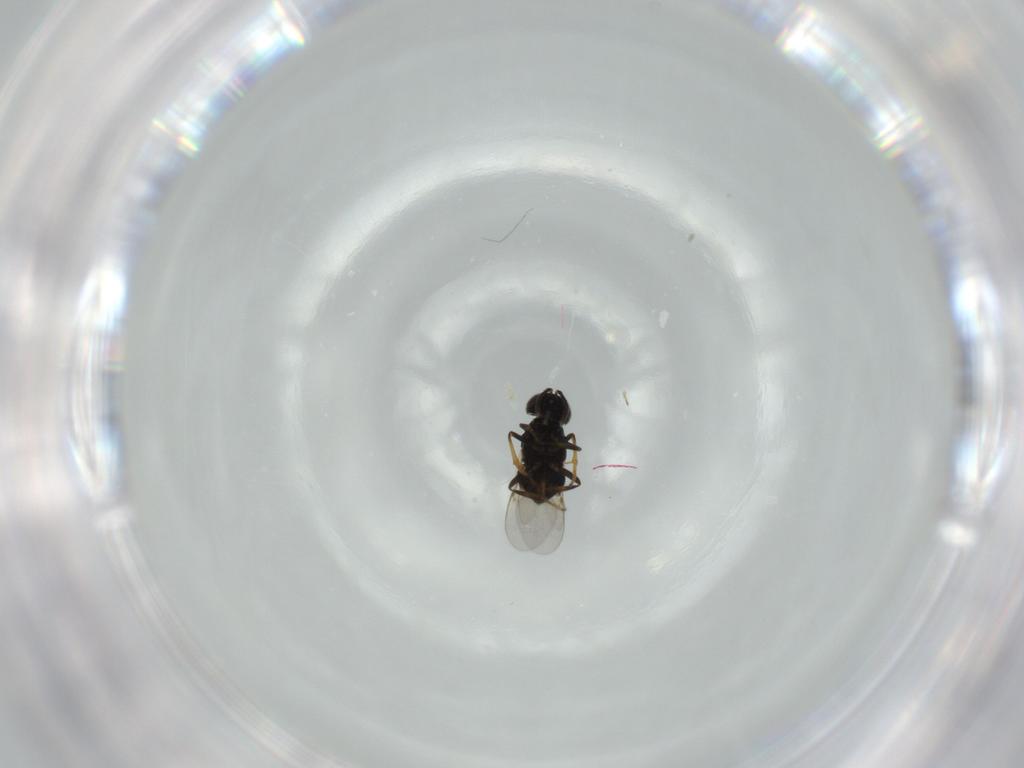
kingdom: Animalia
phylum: Arthropoda
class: Insecta
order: Hymenoptera
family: Encyrtidae
